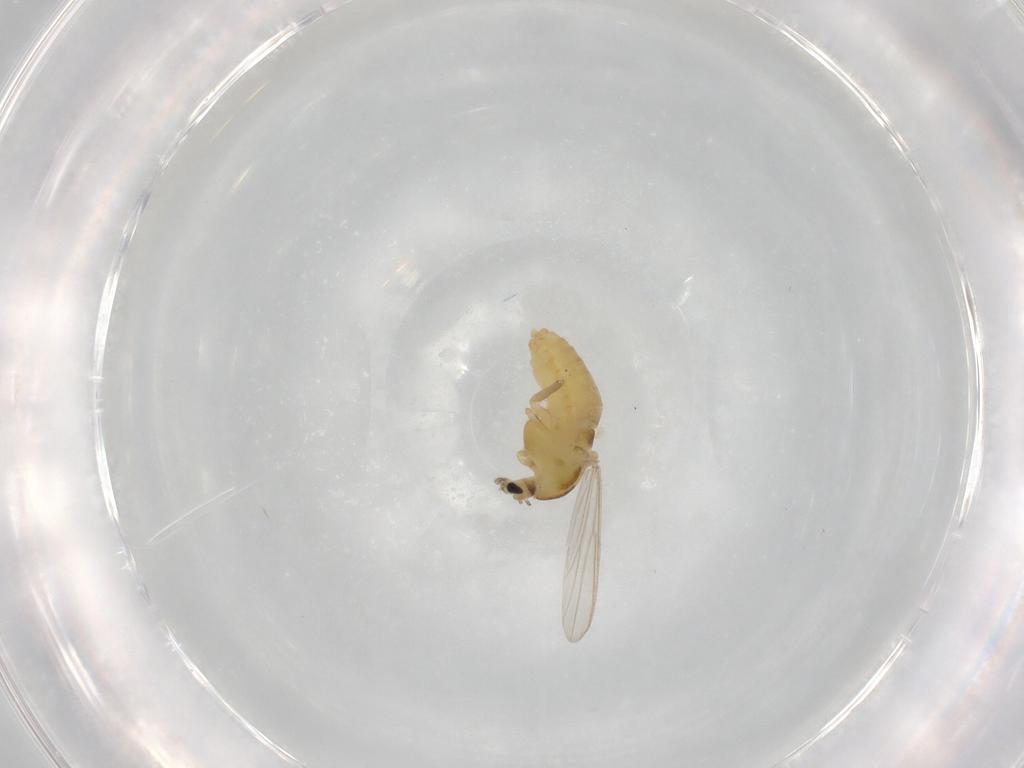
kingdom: Animalia
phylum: Arthropoda
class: Insecta
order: Diptera
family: Chironomidae
